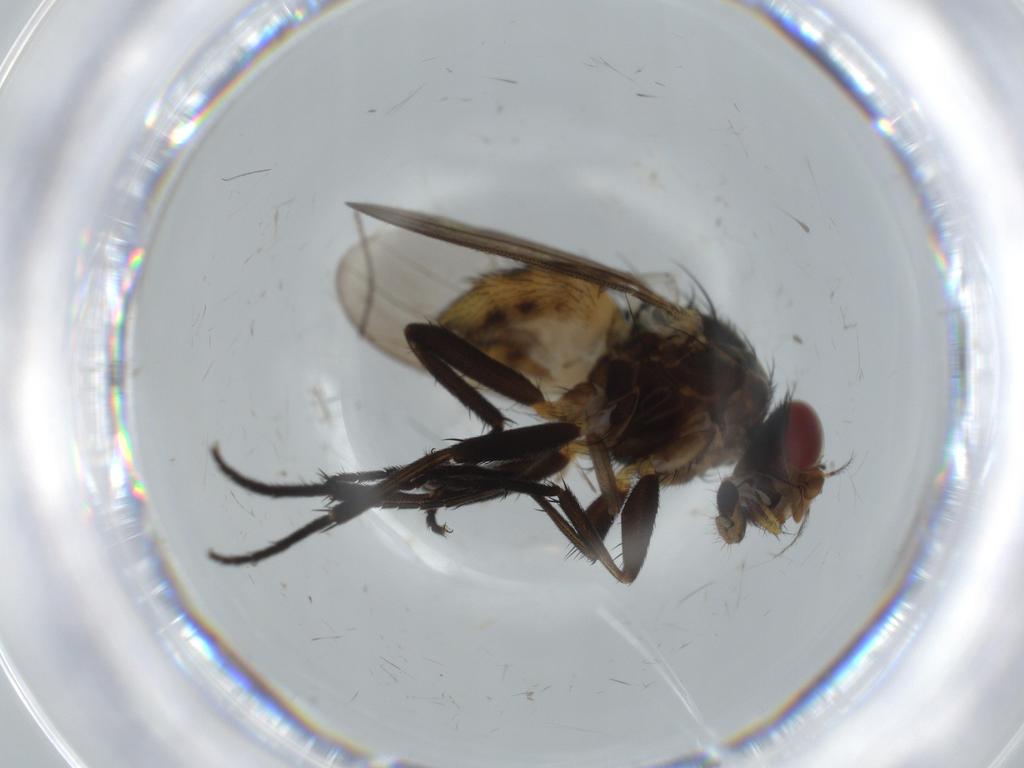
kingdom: Animalia
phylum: Arthropoda
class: Insecta
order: Diptera
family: Anthomyiidae
